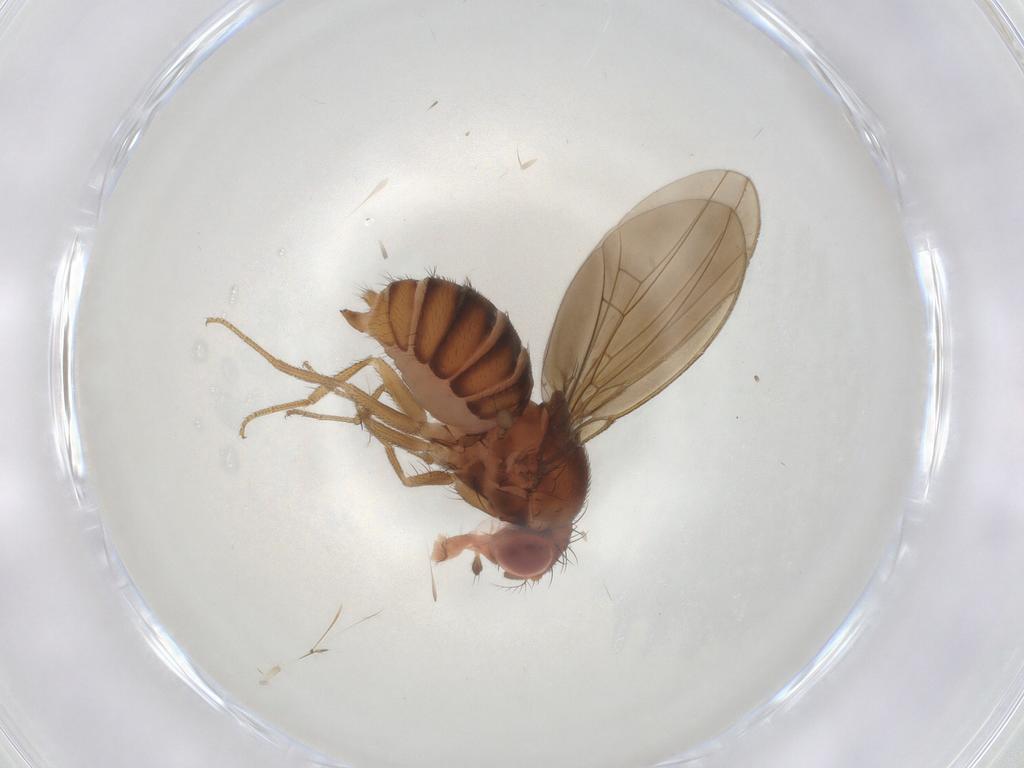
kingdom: Animalia
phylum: Arthropoda
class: Insecta
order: Diptera
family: Drosophilidae
